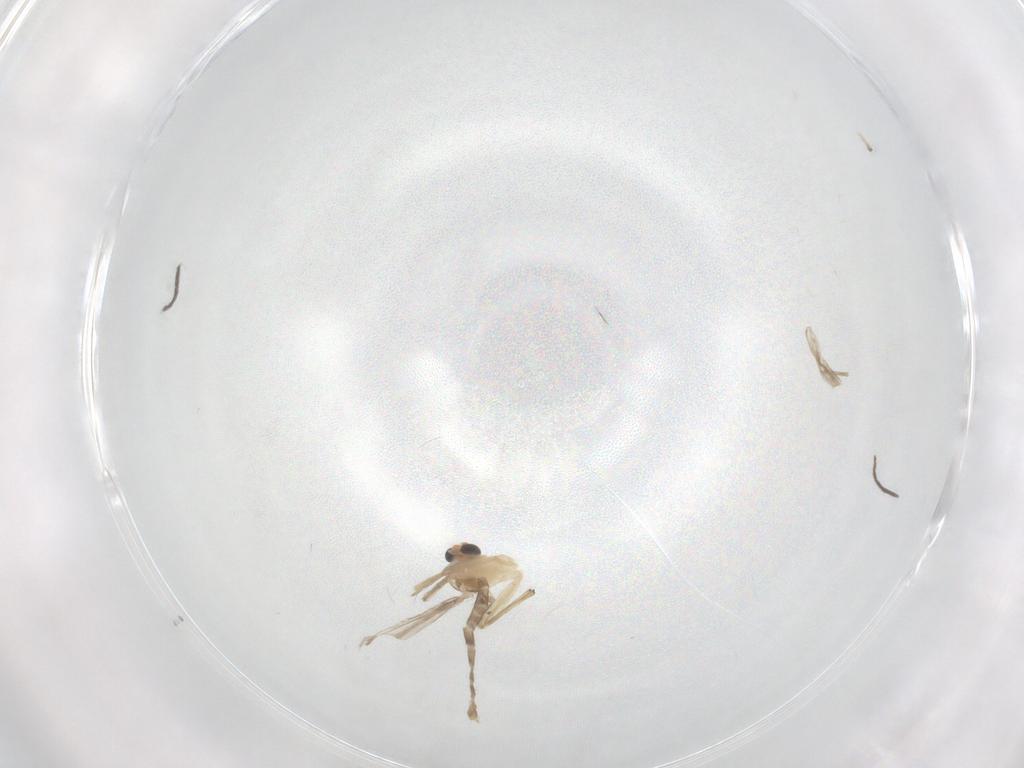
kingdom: Animalia
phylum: Arthropoda
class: Insecta
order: Diptera
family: Chironomidae
